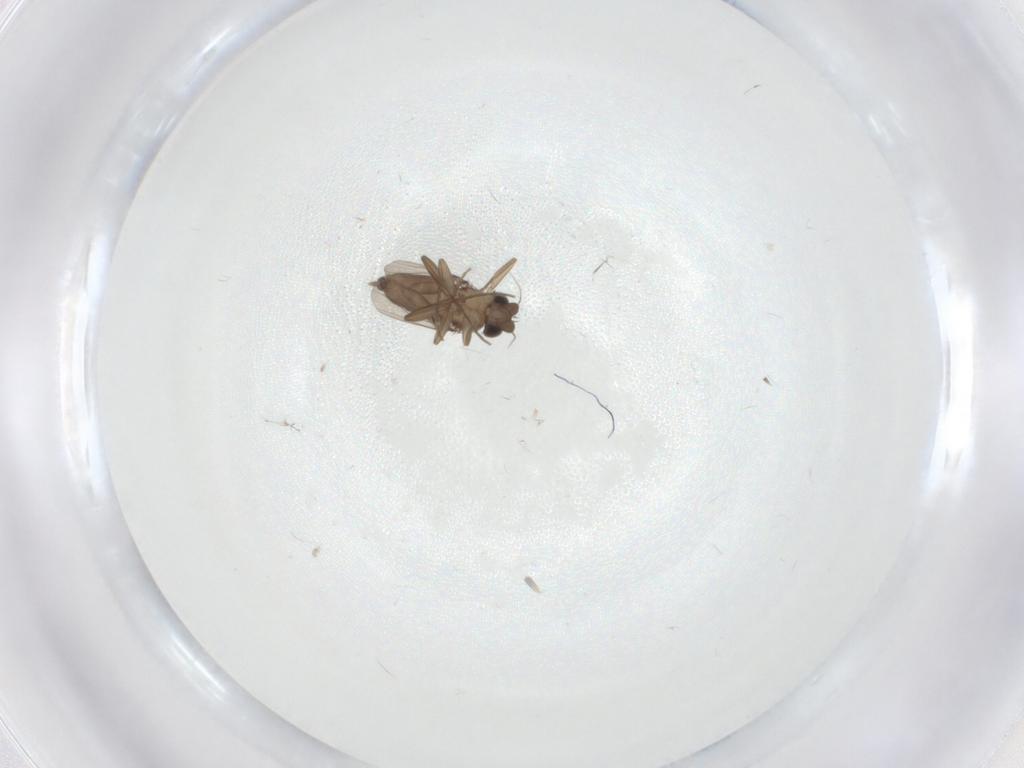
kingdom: Animalia
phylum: Arthropoda
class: Insecta
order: Diptera
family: Phoridae
